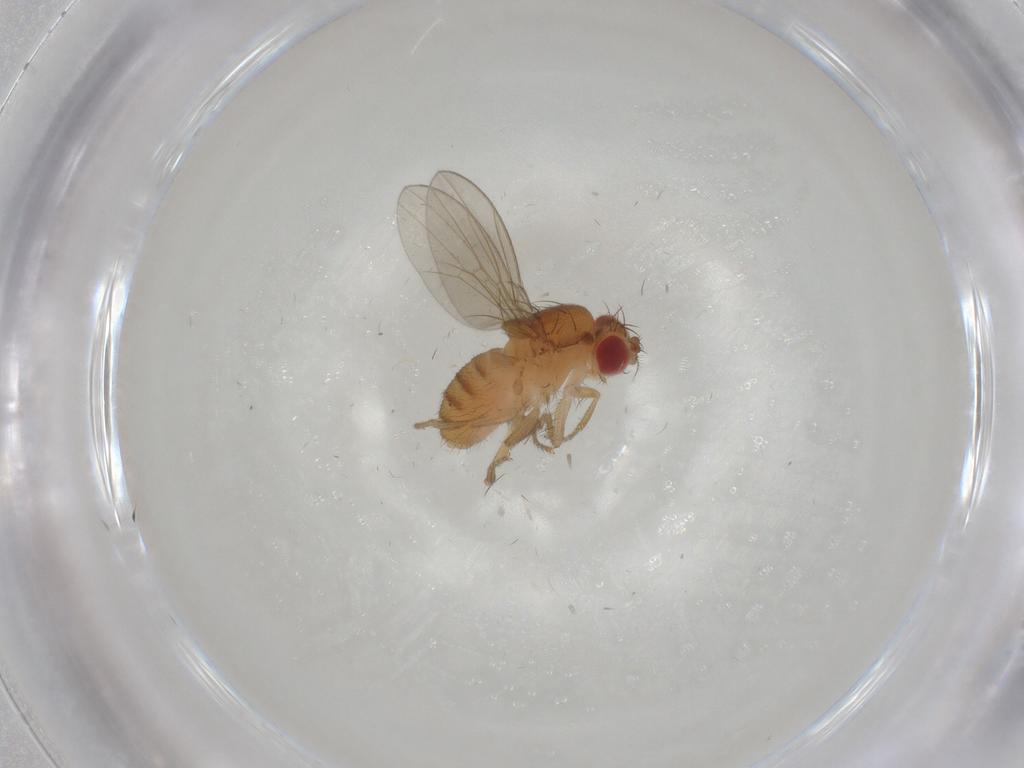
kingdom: Animalia
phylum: Arthropoda
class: Insecta
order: Diptera
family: Drosophilidae
